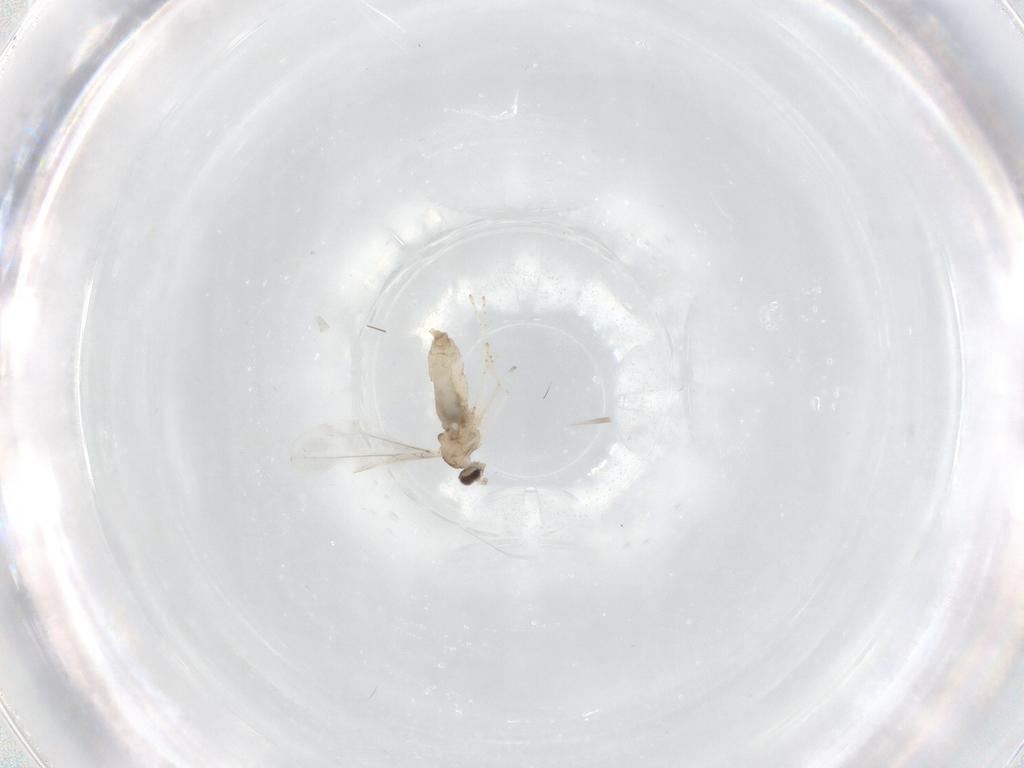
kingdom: Animalia
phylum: Arthropoda
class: Insecta
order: Diptera
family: Cecidomyiidae
